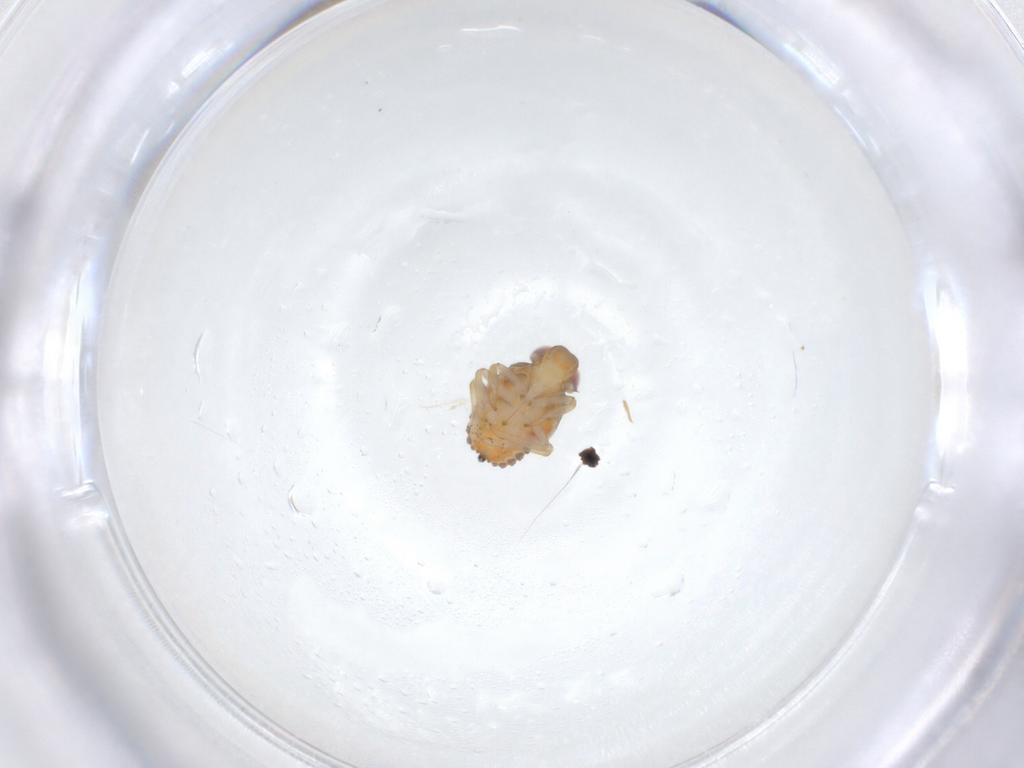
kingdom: Animalia
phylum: Arthropoda
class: Insecta
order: Hemiptera
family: Issidae
